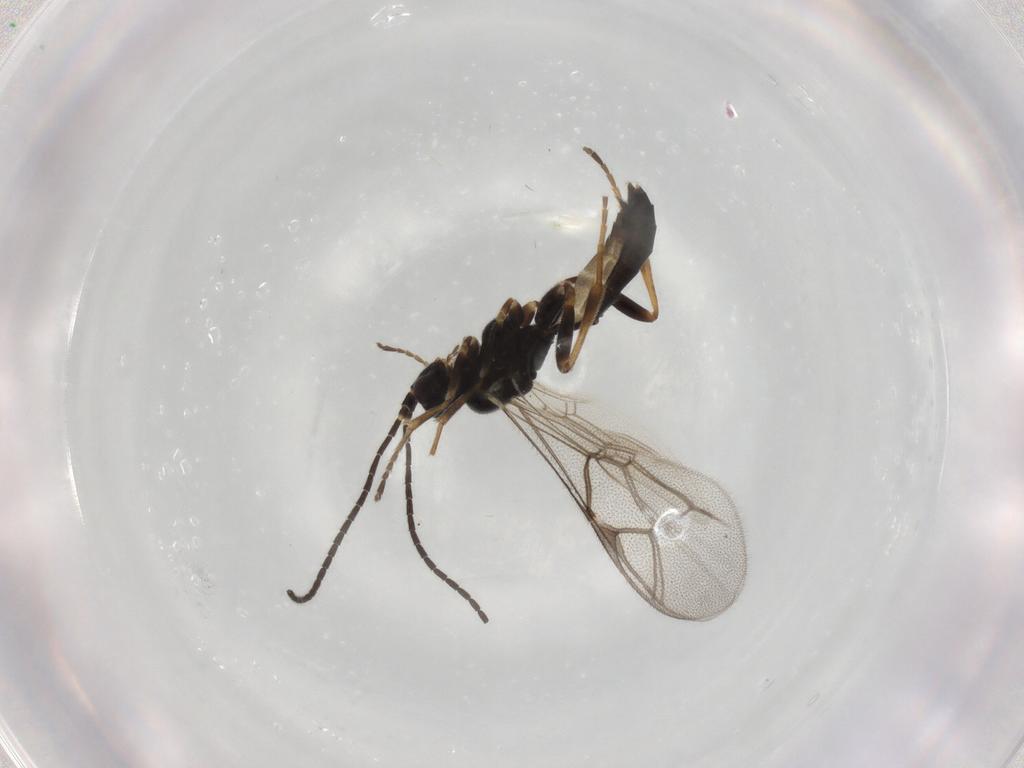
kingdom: Animalia
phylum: Arthropoda
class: Insecta
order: Hymenoptera
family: Ichneumonidae
